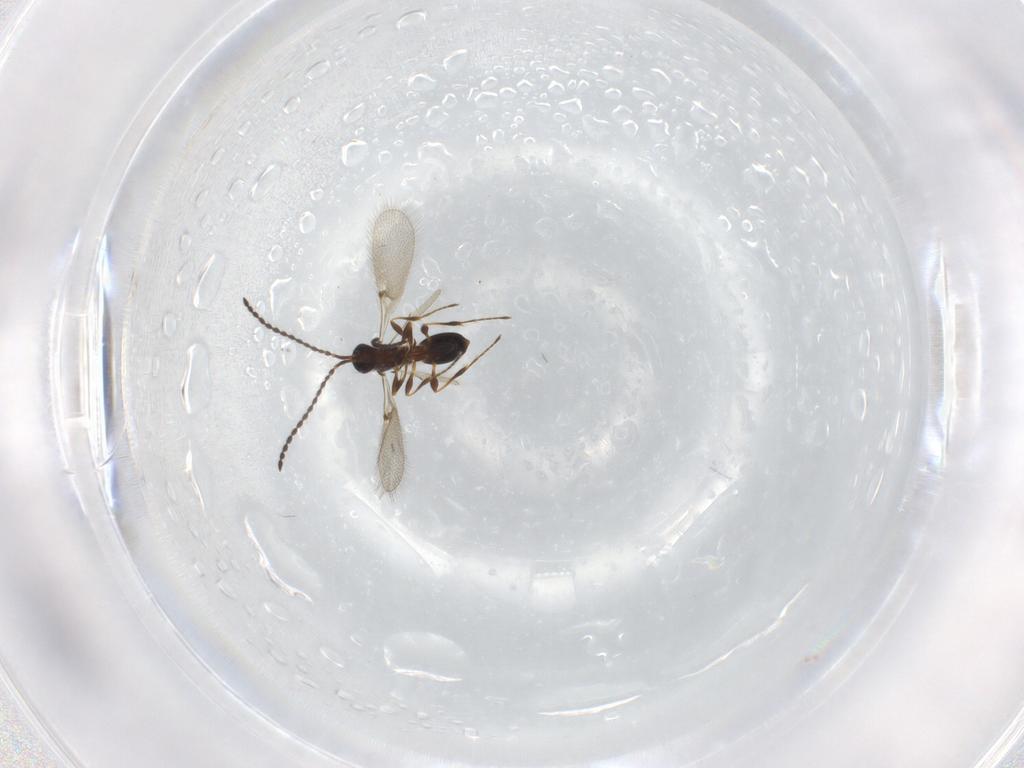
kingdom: Animalia
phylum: Arthropoda
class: Insecta
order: Hymenoptera
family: Diapriidae
